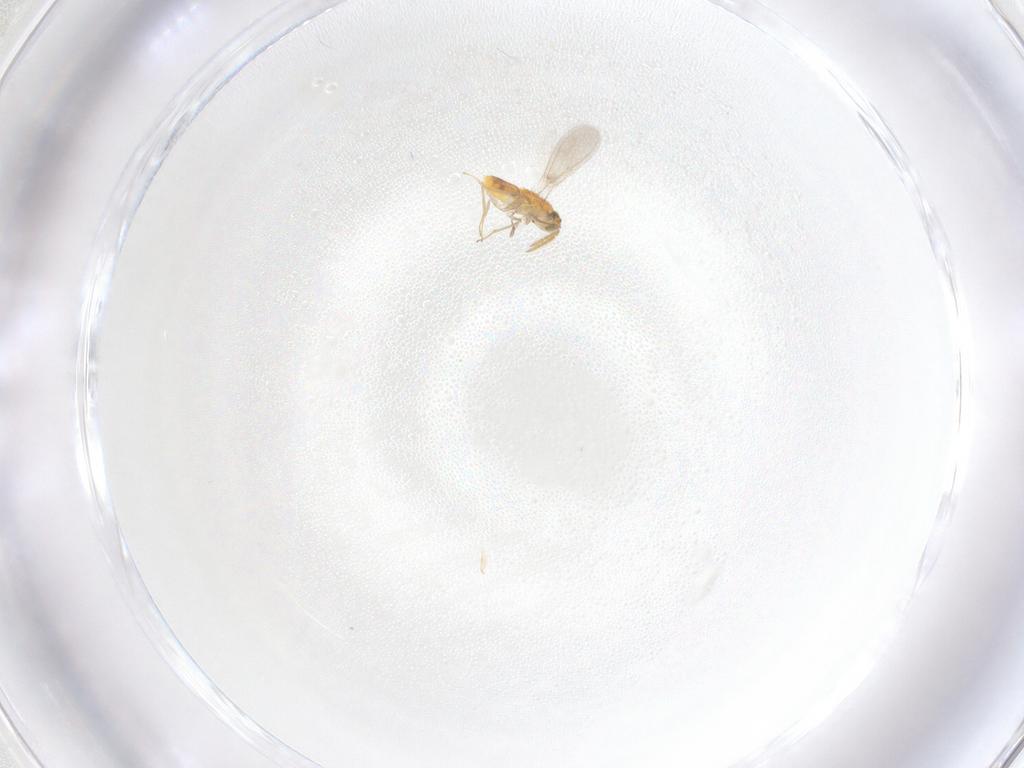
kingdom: Animalia
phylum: Arthropoda
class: Insecta
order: Hymenoptera
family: Aphelinidae
